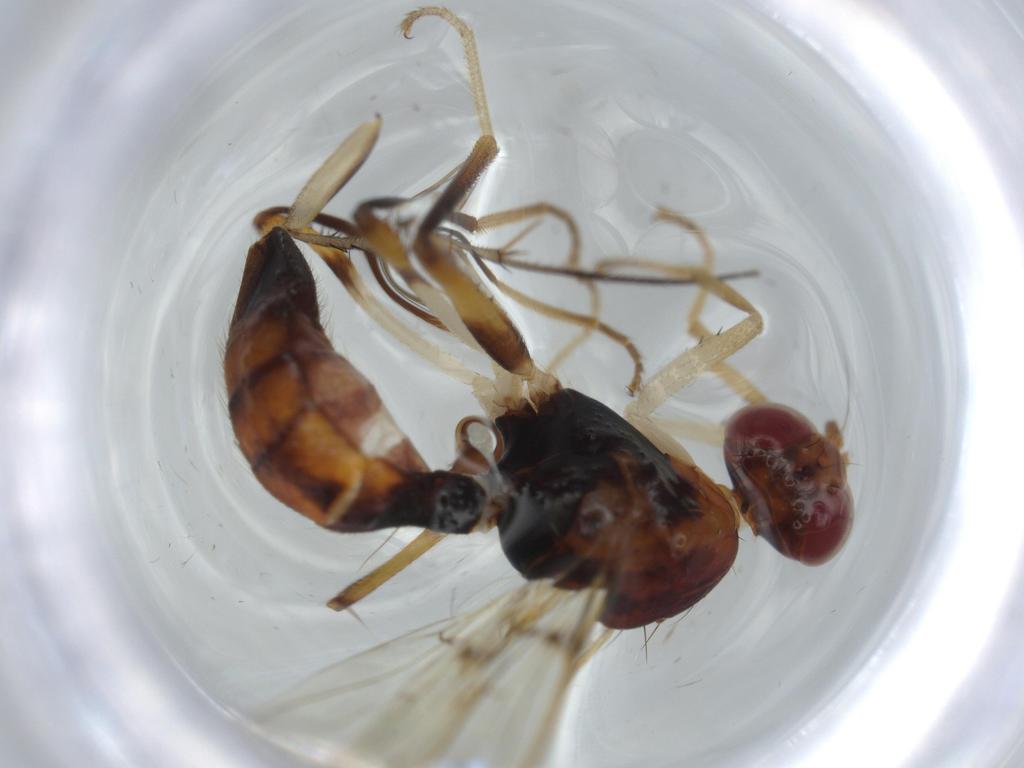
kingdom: Animalia
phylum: Arthropoda
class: Insecta
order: Diptera
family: Richardiidae
